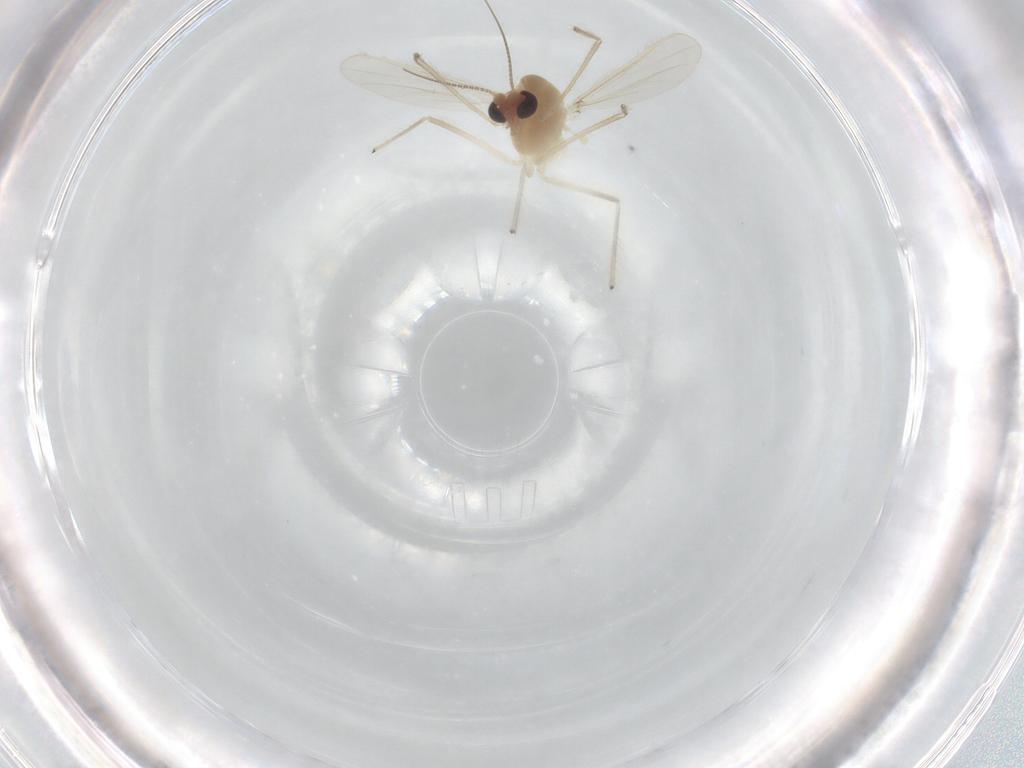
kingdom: Animalia
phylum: Arthropoda
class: Insecta
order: Diptera
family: Chironomidae
